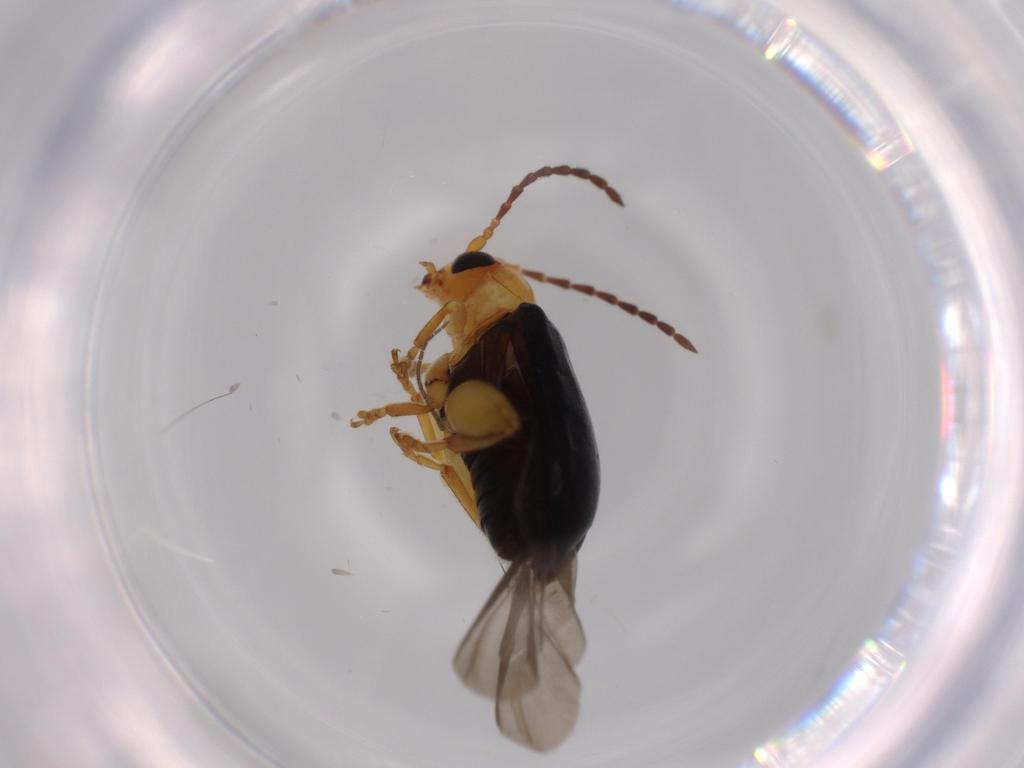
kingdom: Animalia
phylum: Arthropoda
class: Insecta
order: Coleoptera
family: Chrysomelidae
